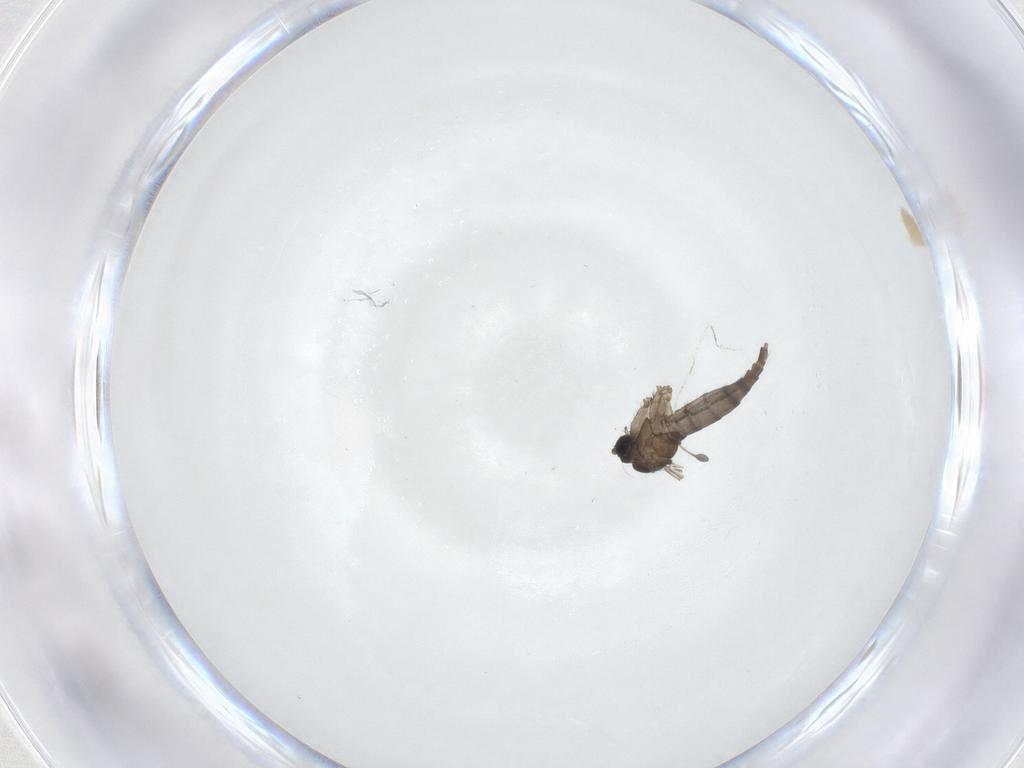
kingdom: Animalia
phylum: Arthropoda
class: Insecta
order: Diptera
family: Sciaridae
